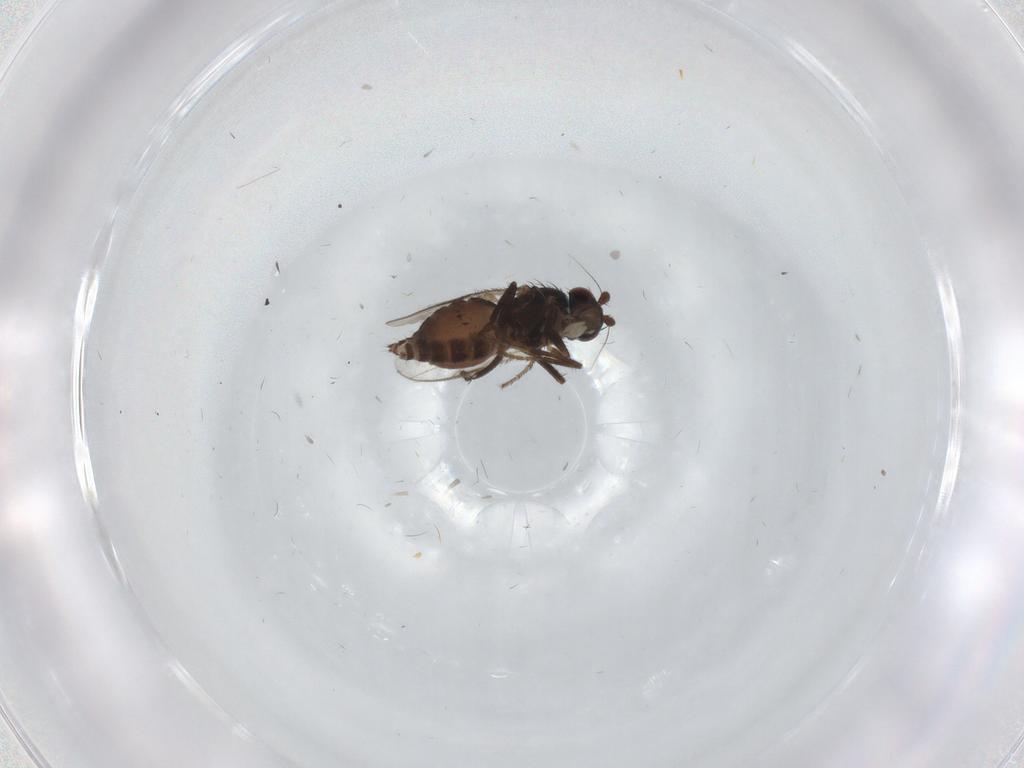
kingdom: Animalia
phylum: Arthropoda
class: Insecta
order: Diptera
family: Sphaeroceridae
